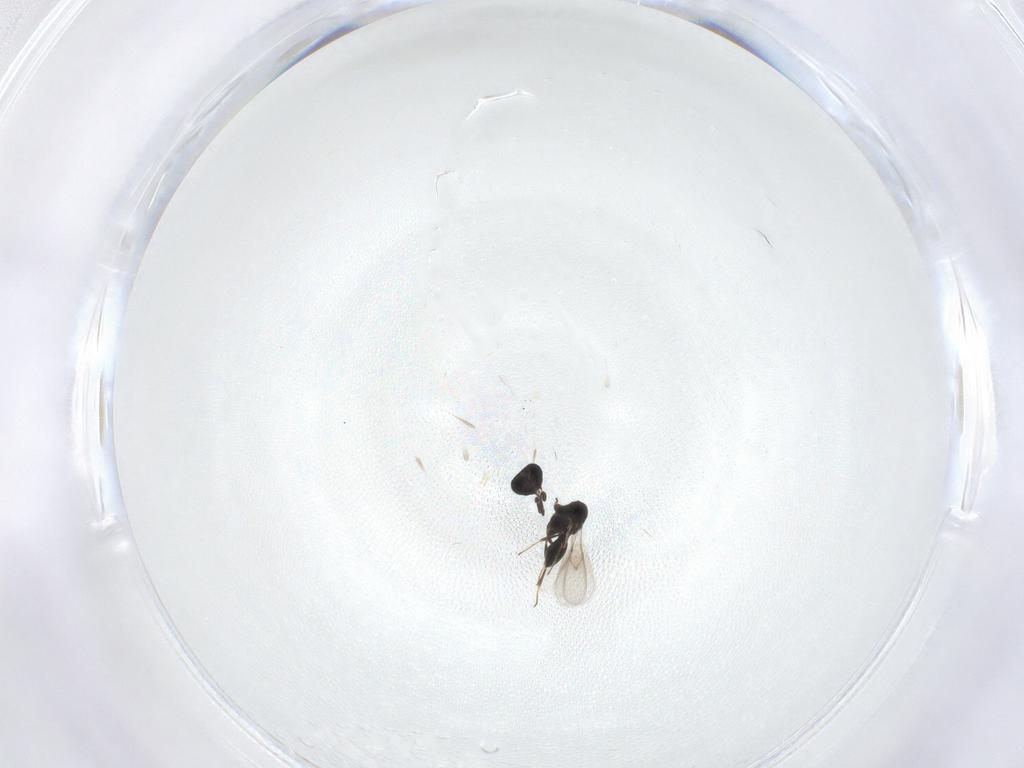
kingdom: Animalia
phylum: Arthropoda
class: Insecta
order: Hymenoptera
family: Scelionidae
